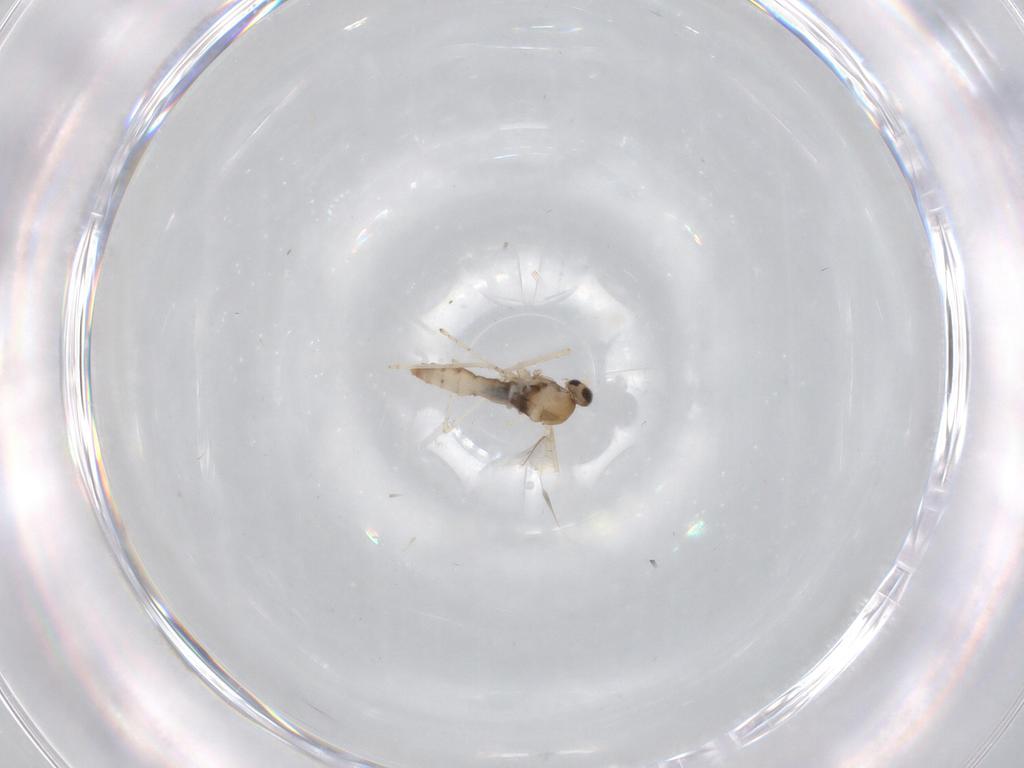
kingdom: Animalia
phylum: Arthropoda
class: Insecta
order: Diptera
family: Cecidomyiidae
